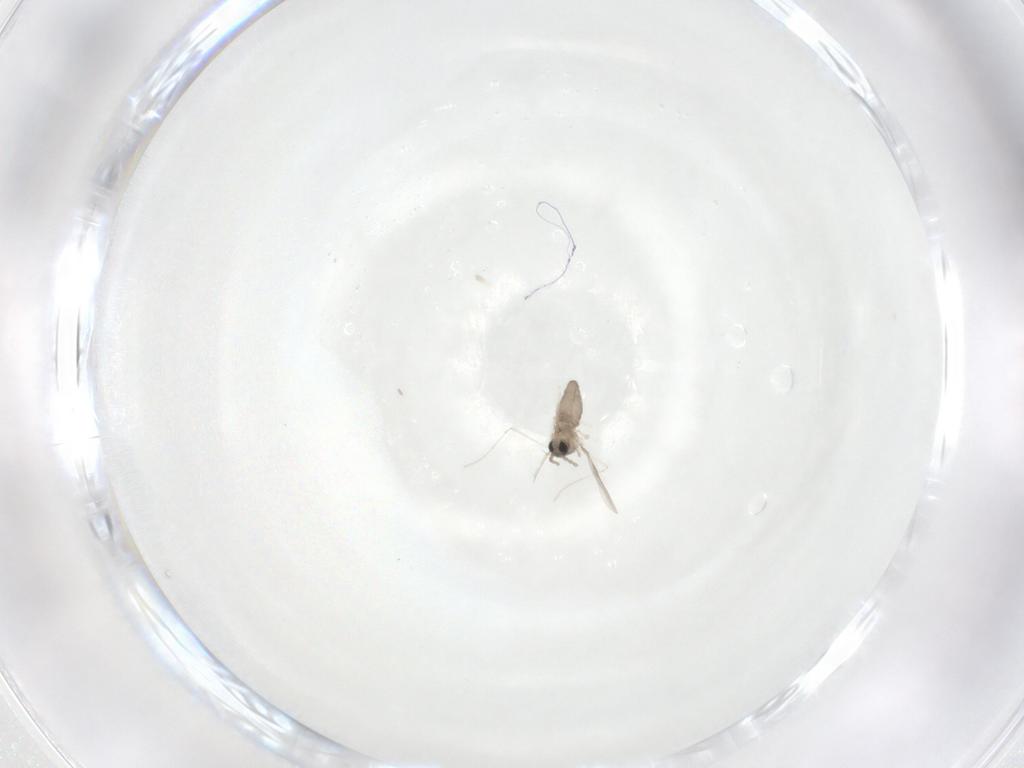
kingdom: Animalia
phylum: Arthropoda
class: Insecta
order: Diptera
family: Cecidomyiidae
